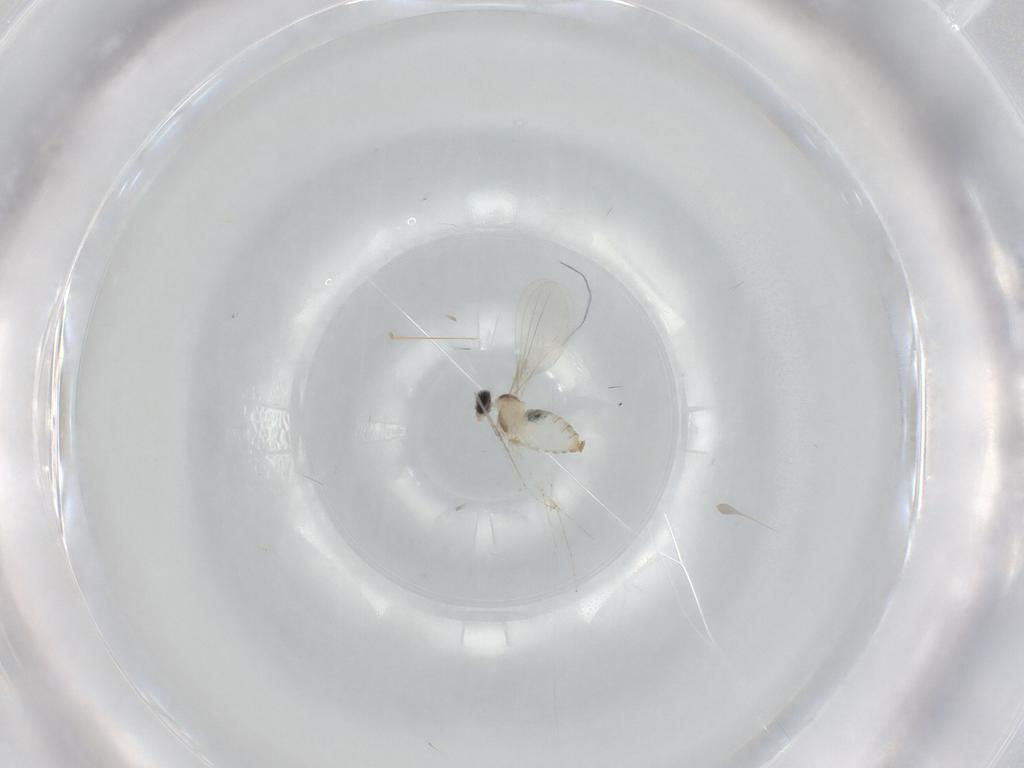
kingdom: Animalia
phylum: Arthropoda
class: Insecta
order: Diptera
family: Cecidomyiidae
